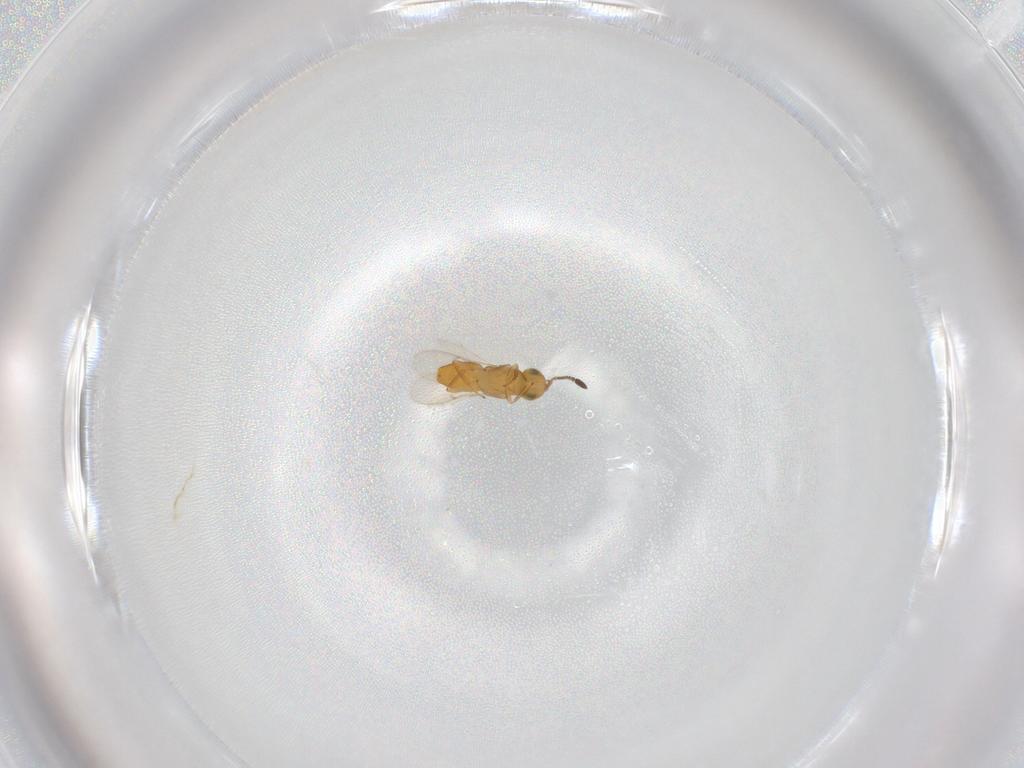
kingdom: Animalia
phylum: Arthropoda
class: Insecta
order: Hymenoptera
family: Encyrtidae
